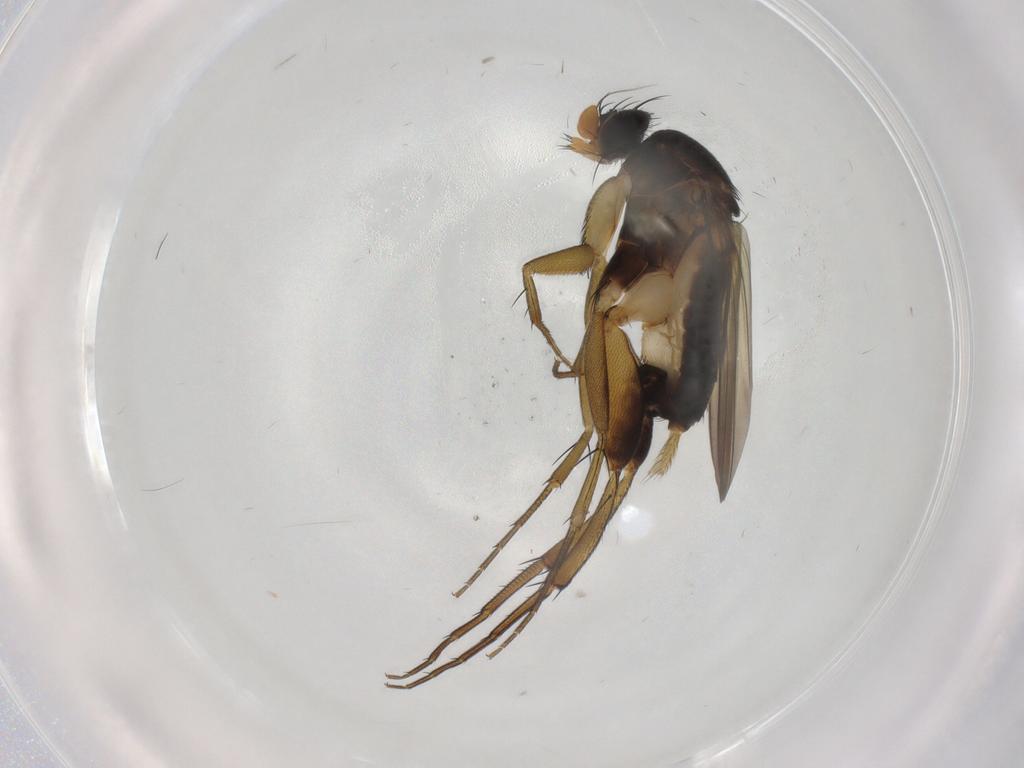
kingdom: Animalia
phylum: Arthropoda
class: Insecta
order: Diptera
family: Phoridae
